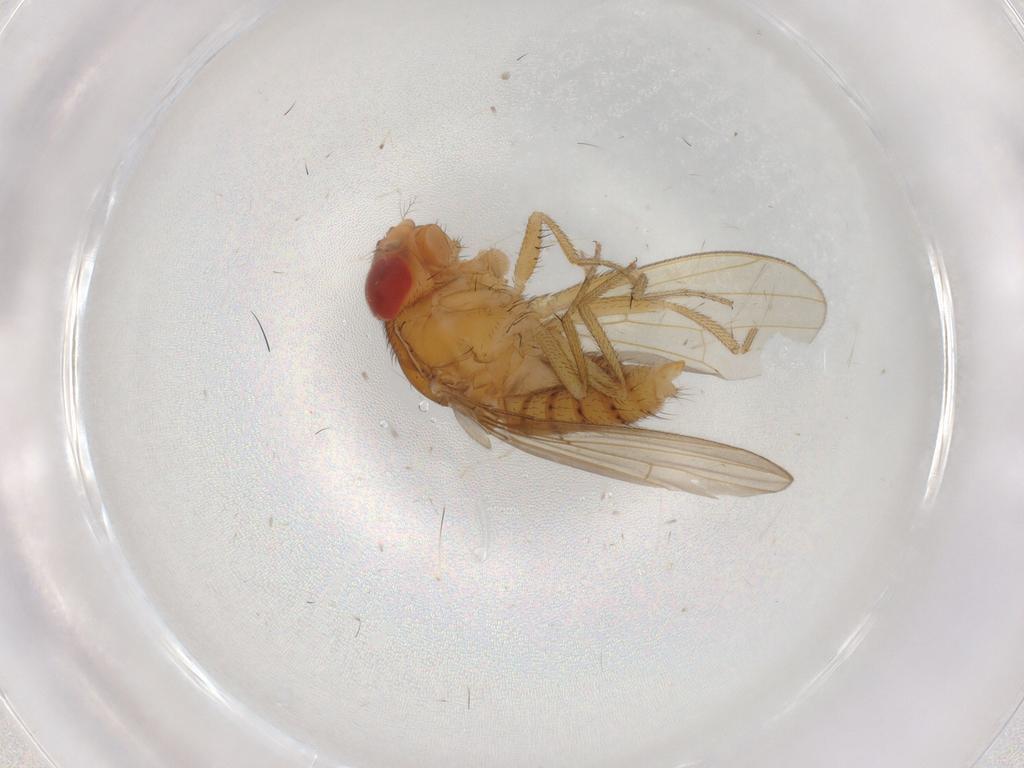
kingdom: Animalia
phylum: Arthropoda
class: Insecta
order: Diptera
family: Drosophilidae
